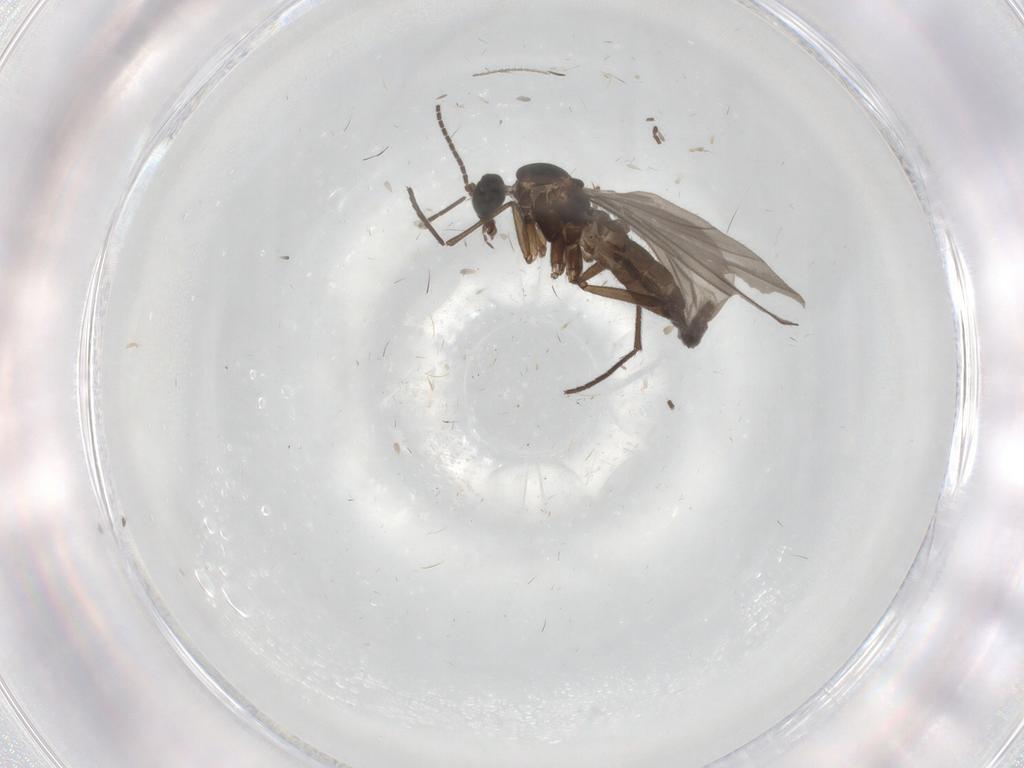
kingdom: Animalia
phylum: Arthropoda
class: Insecta
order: Diptera
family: Sciaridae
